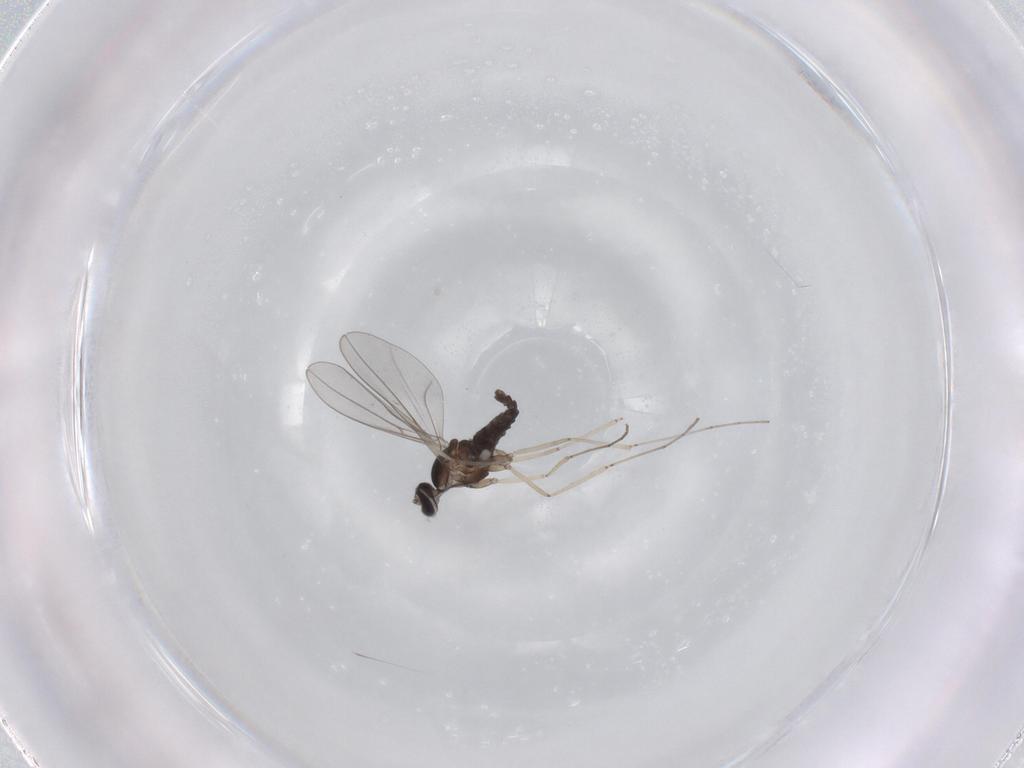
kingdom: Animalia
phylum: Arthropoda
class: Insecta
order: Diptera
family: Cecidomyiidae
